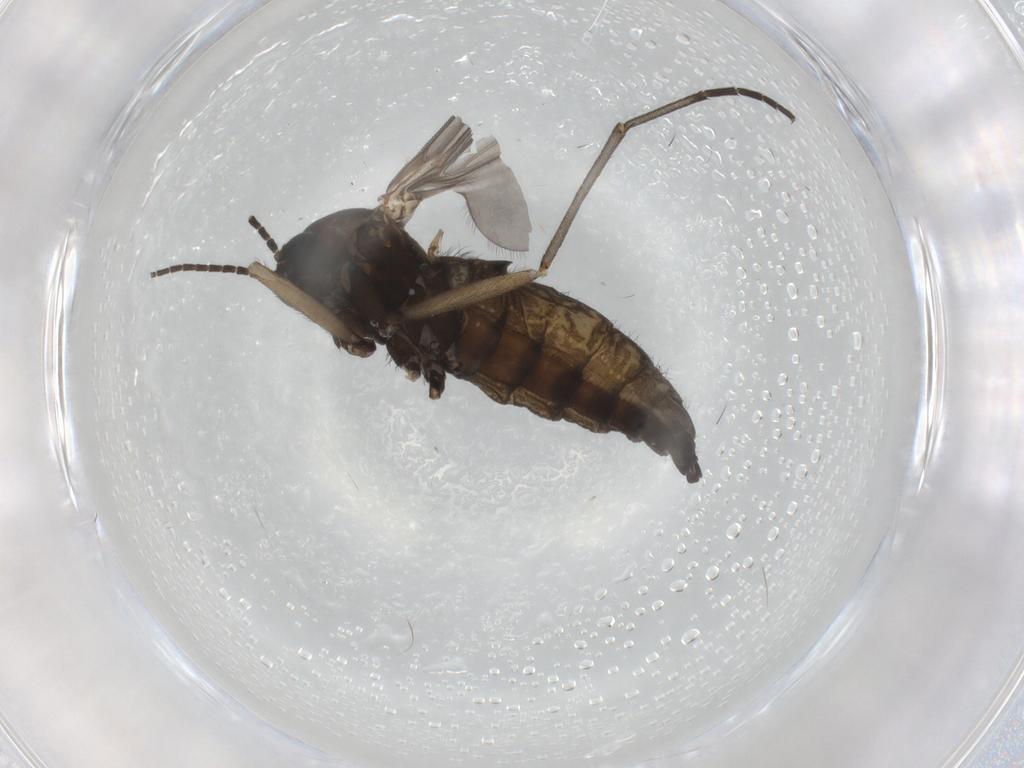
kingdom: Animalia
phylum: Arthropoda
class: Insecta
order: Diptera
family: Sciaridae
